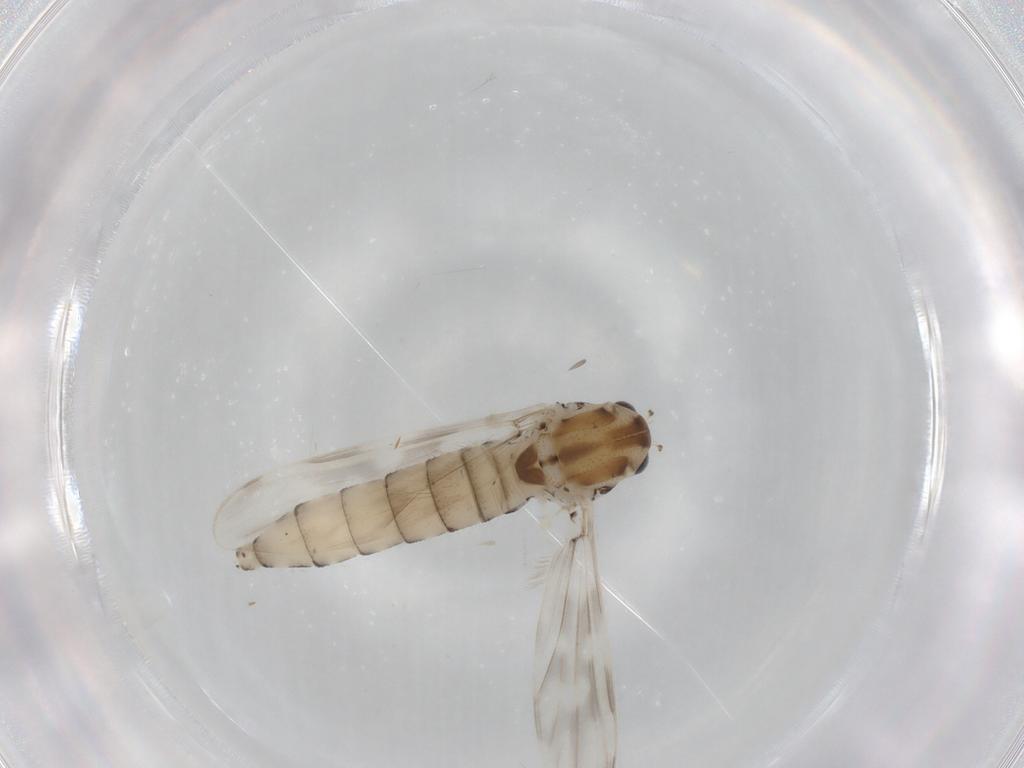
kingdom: Animalia
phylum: Arthropoda
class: Insecta
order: Diptera
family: Ceratopogonidae
